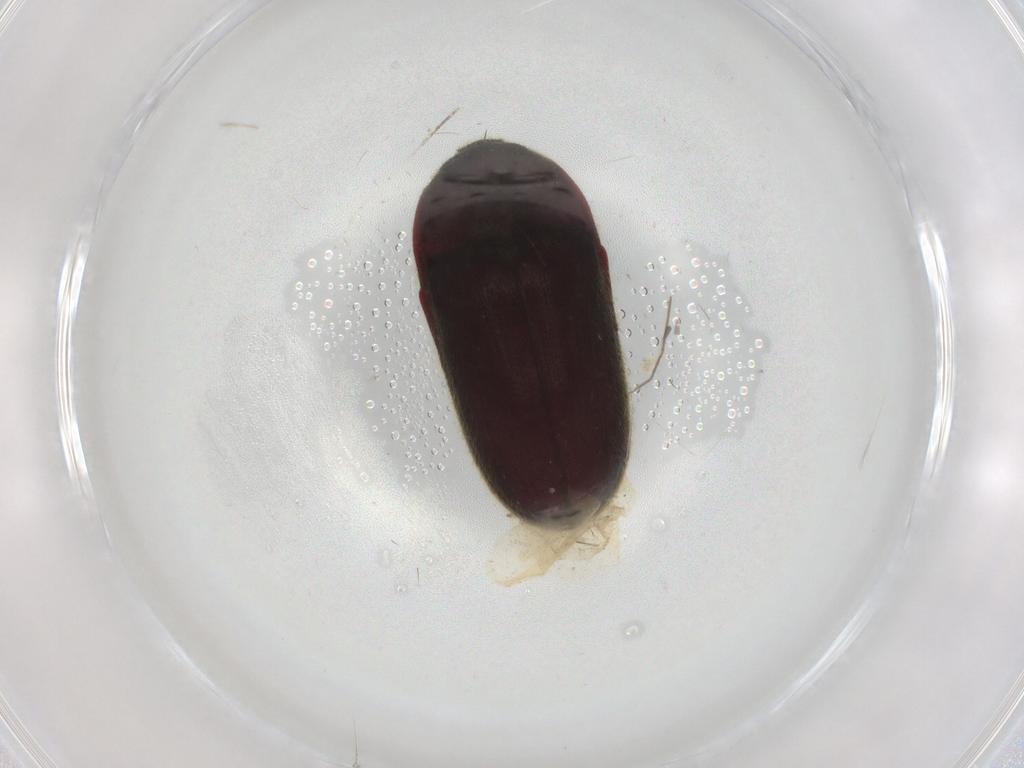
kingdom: Animalia
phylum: Arthropoda
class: Insecta
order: Coleoptera
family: Throscidae
